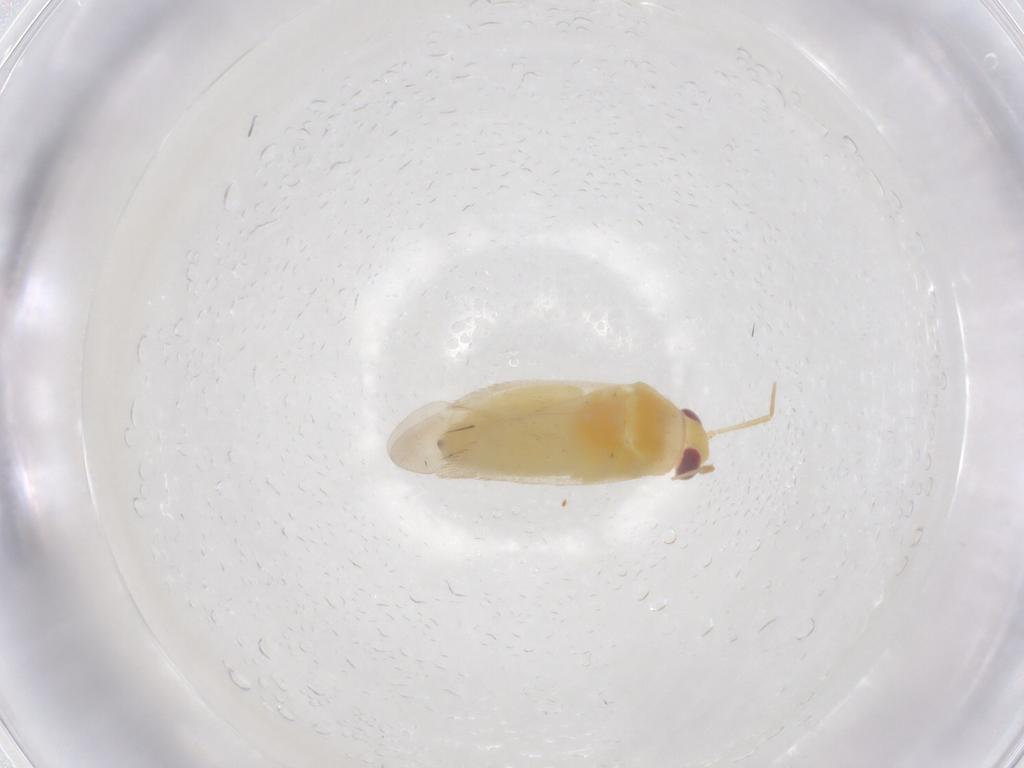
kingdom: Animalia
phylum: Arthropoda
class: Insecta
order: Hemiptera
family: Miridae
